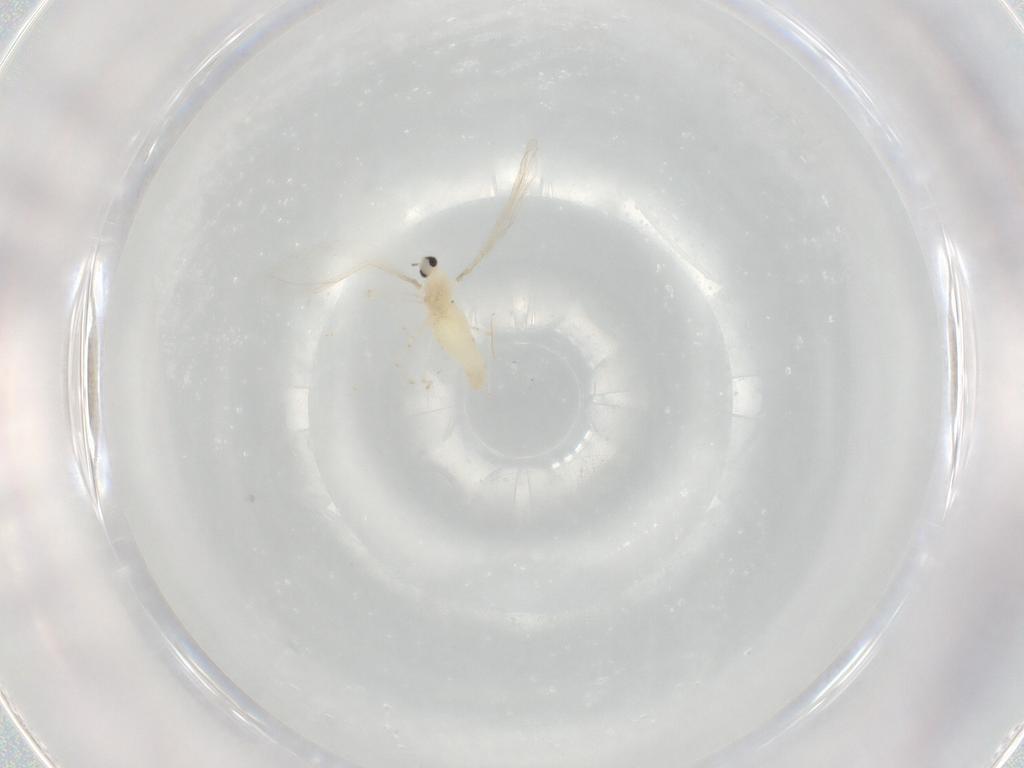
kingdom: Animalia
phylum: Arthropoda
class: Insecta
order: Diptera
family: Cecidomyiidae
